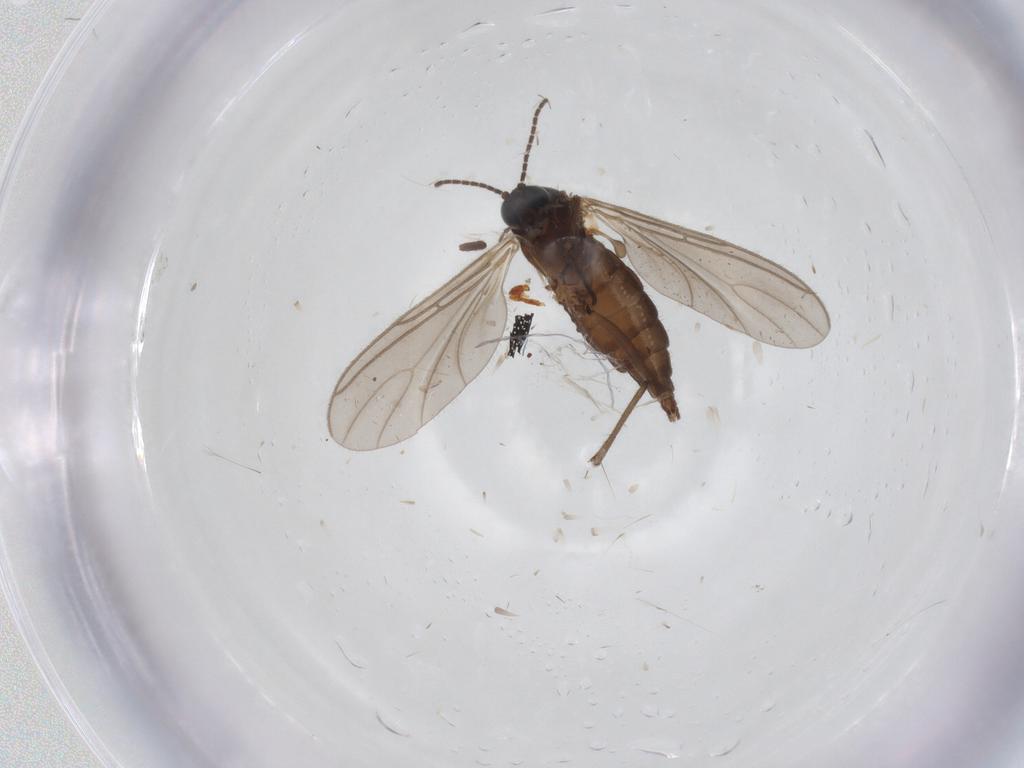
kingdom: Animalia
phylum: Arthropoda
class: Insecta
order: Diptera
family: Sciaridae
